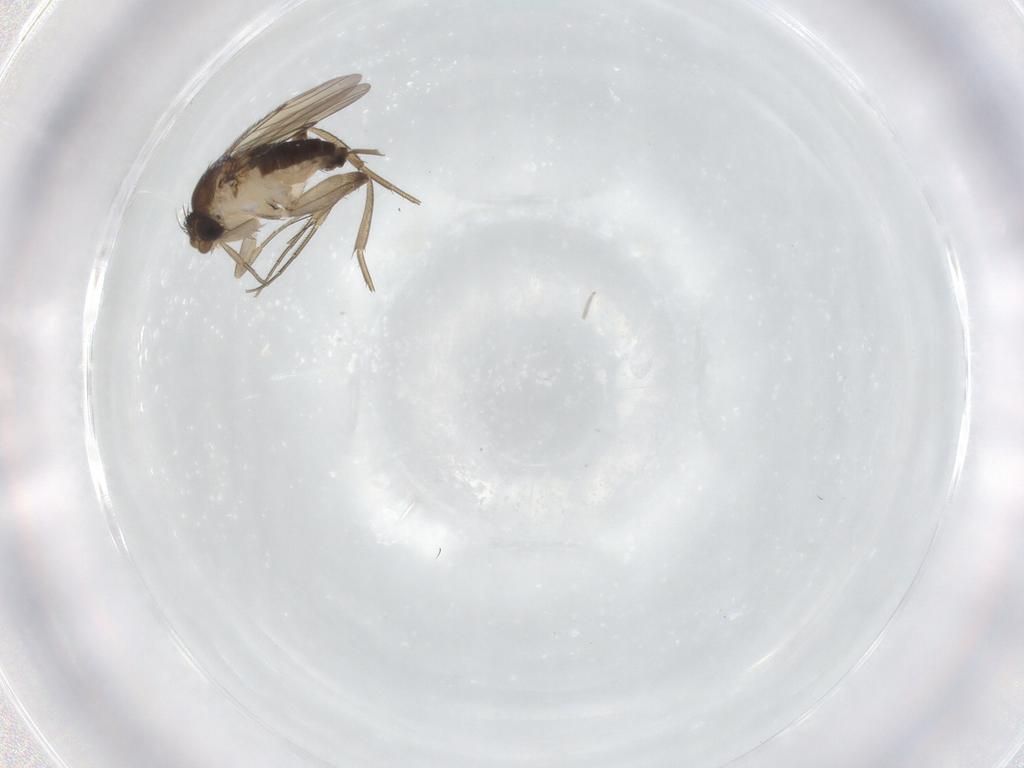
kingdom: Animalia
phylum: Arthropoda
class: Insecta
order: Diptera
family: Phoridae
